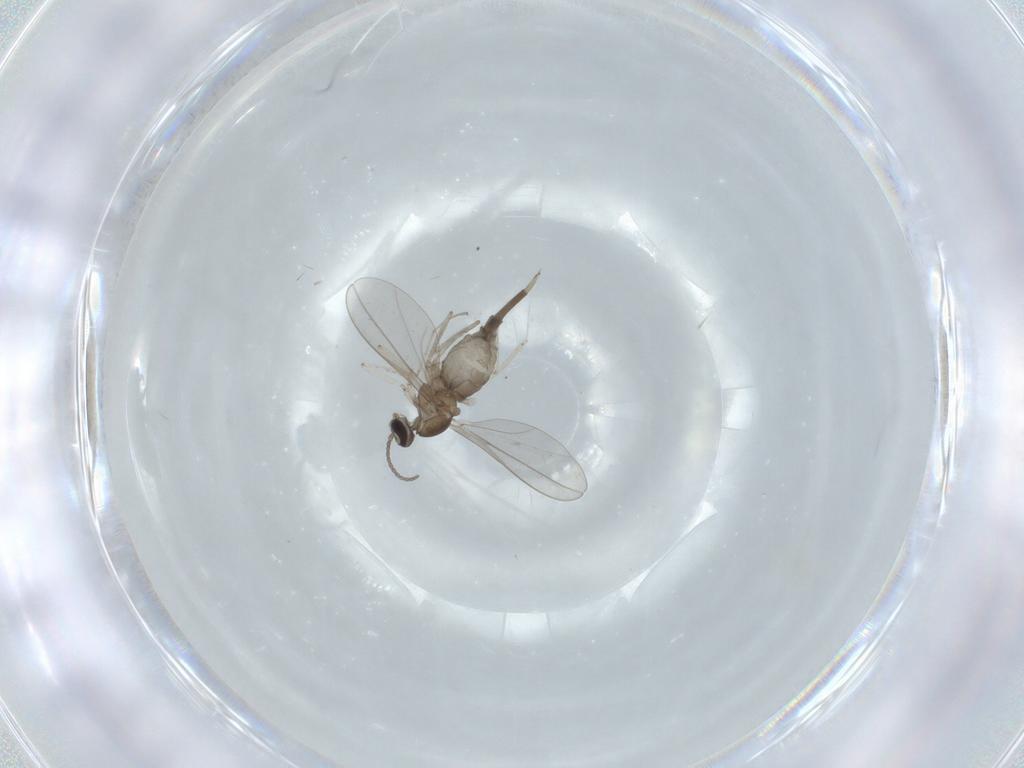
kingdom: Animalia
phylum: Arthropoda
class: Insecta
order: Diptera
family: Cecidomyiidae
